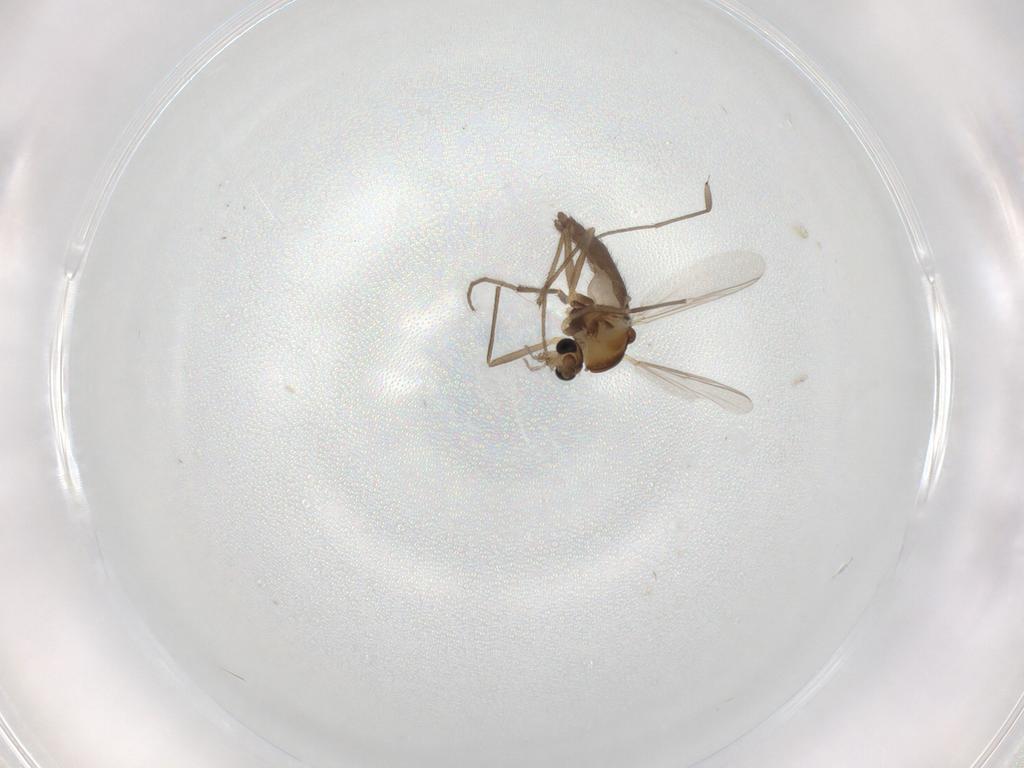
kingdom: Animalia
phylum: Arthropoda
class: Insecta
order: Diptera
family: Chironomidae
